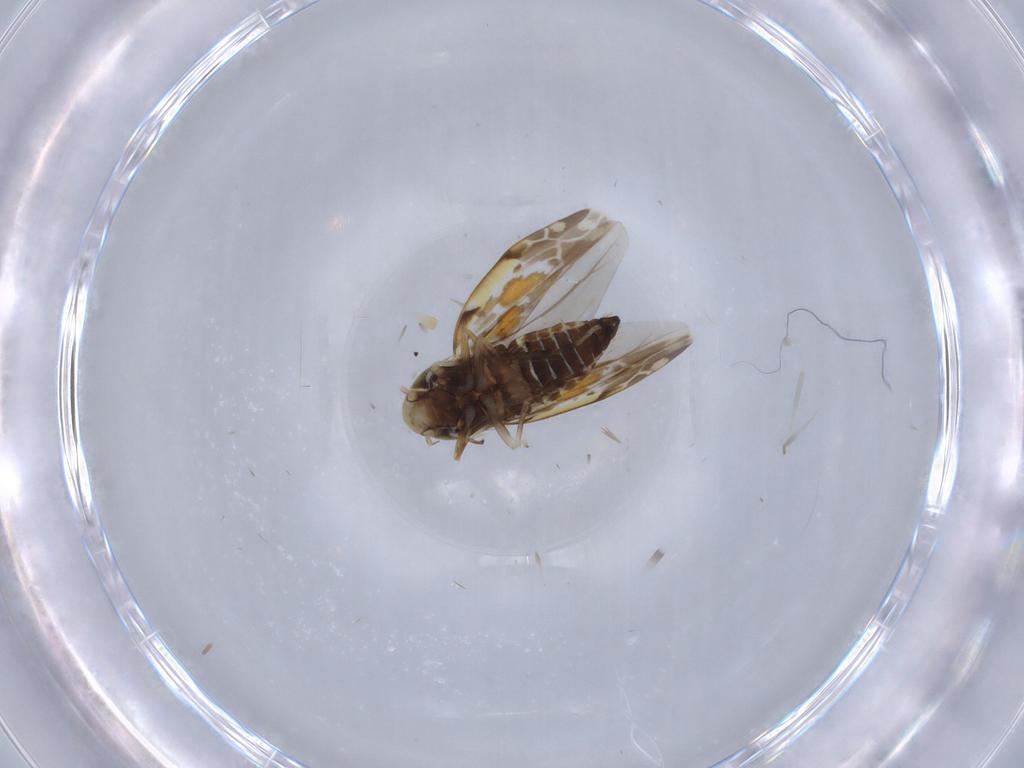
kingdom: Animalia
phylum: Arthropoda
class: Insecta
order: Hemiptera
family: Cicadellidae
